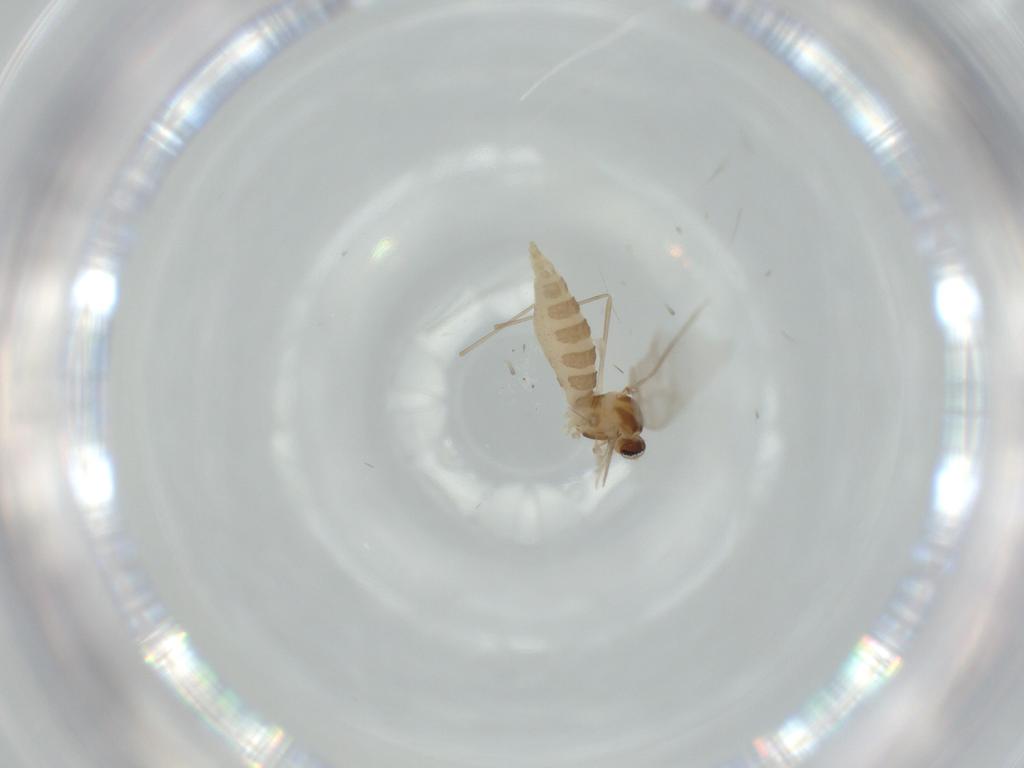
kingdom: Animalia
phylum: Arthropoda
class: Insecta
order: Diptera
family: Cecidomyiidae
